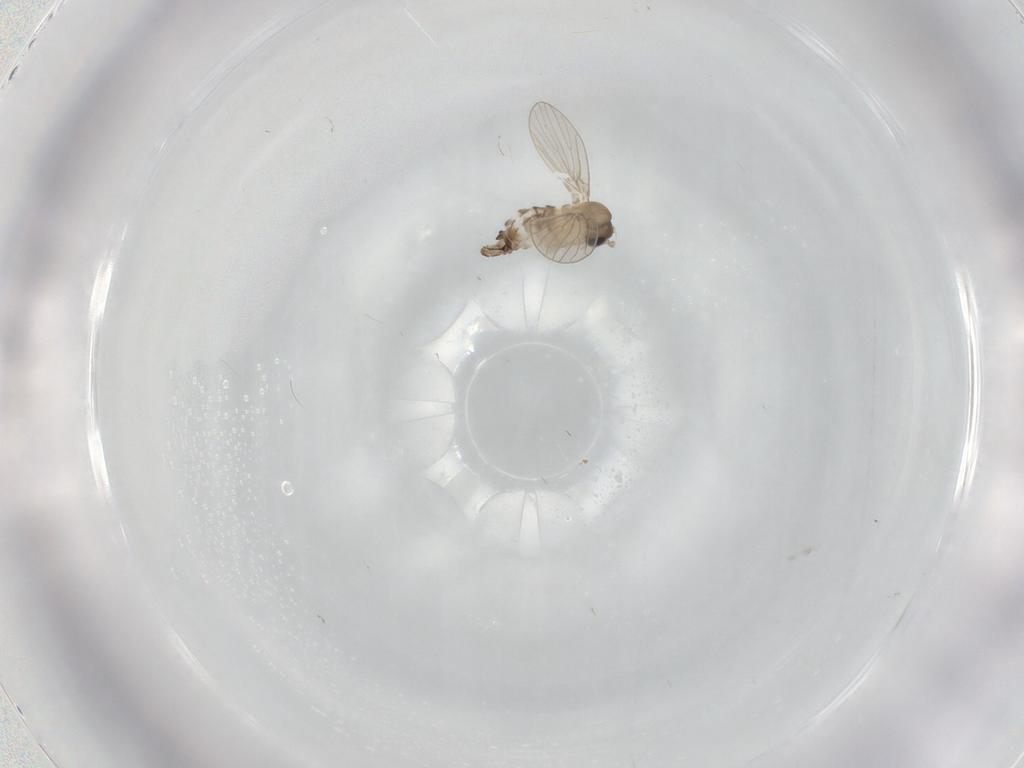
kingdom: Animalia
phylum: Arthropoda
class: Insecta
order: Diptera
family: Psychodidae
